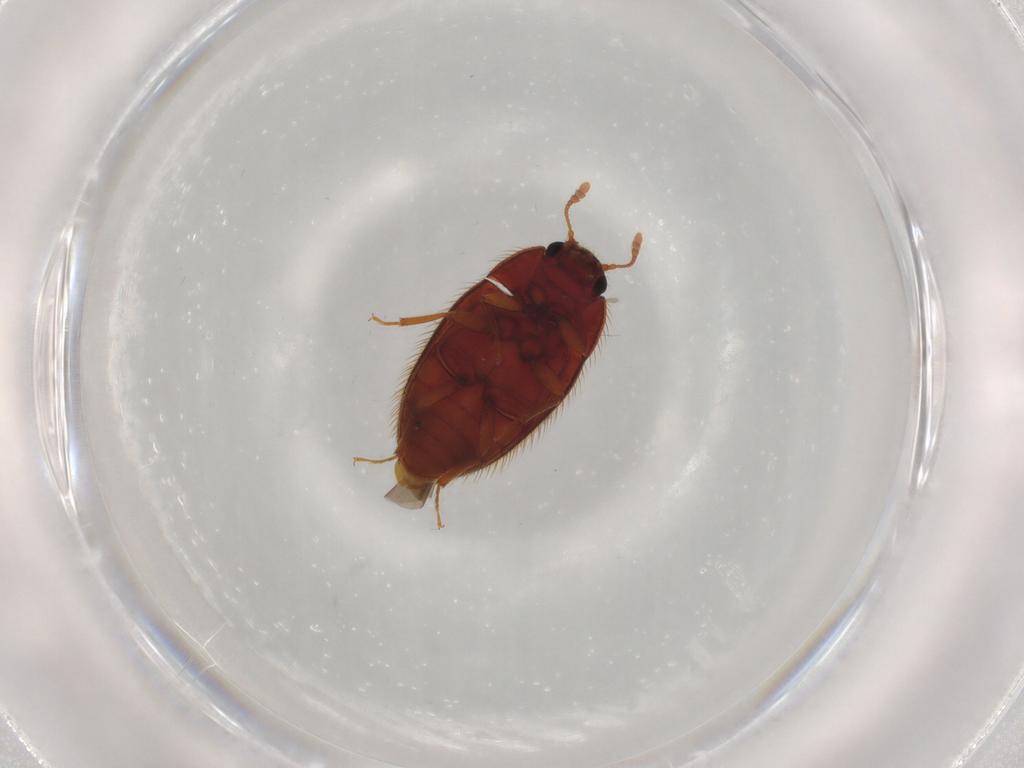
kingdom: Animalia
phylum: Arthropoda
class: Insecta
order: Coleoptera
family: Biphyllidae
